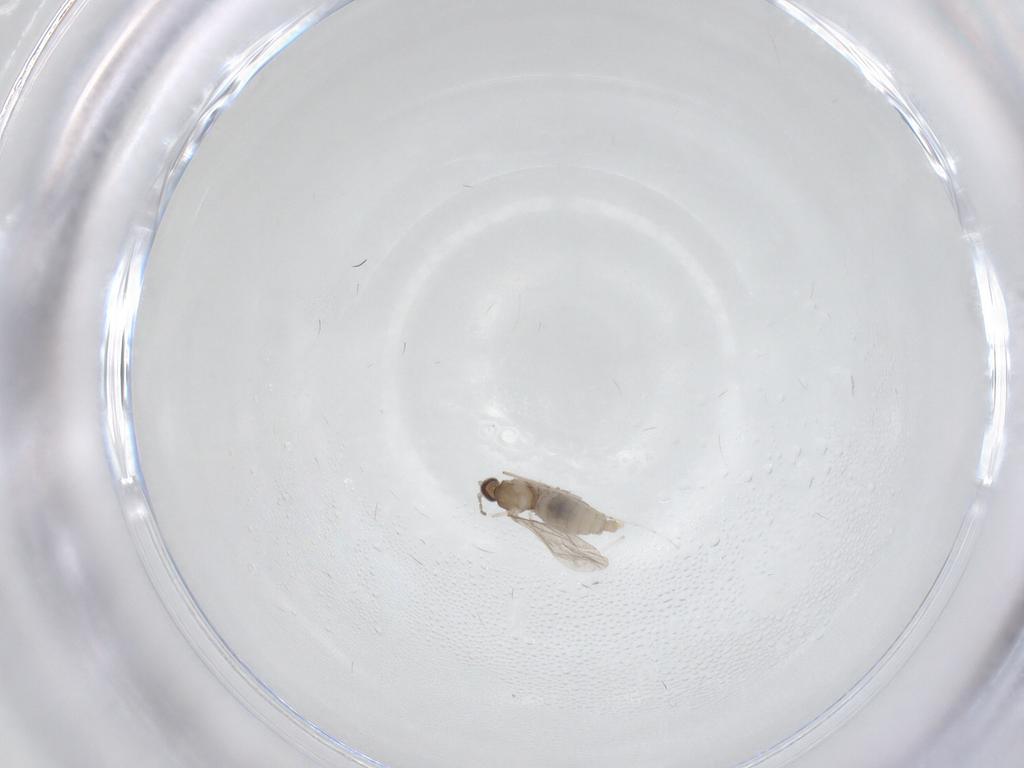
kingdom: Animalia
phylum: Arthropoda
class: Insecta
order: Diptera
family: Cecidomyiidae
